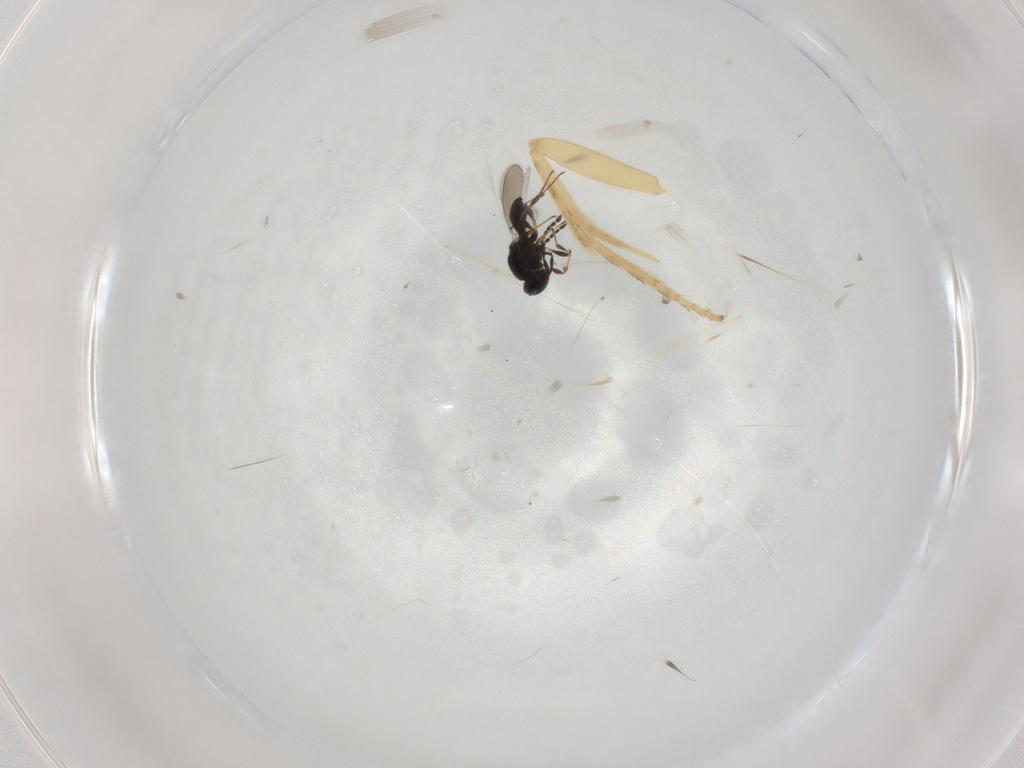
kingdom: Animalia
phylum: Arthropoda
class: Insecta
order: Hymenoptera
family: Platygastridae
